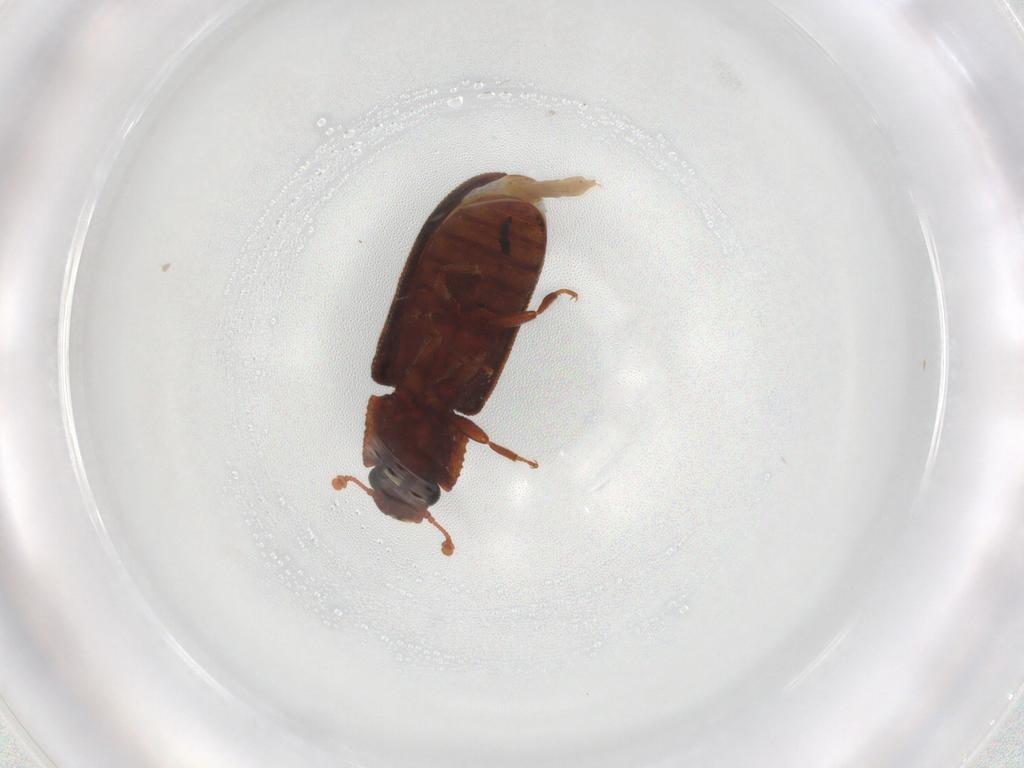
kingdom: Animalia
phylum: Arthropoda
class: Insecta
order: Coleoptera
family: Zopheridae
